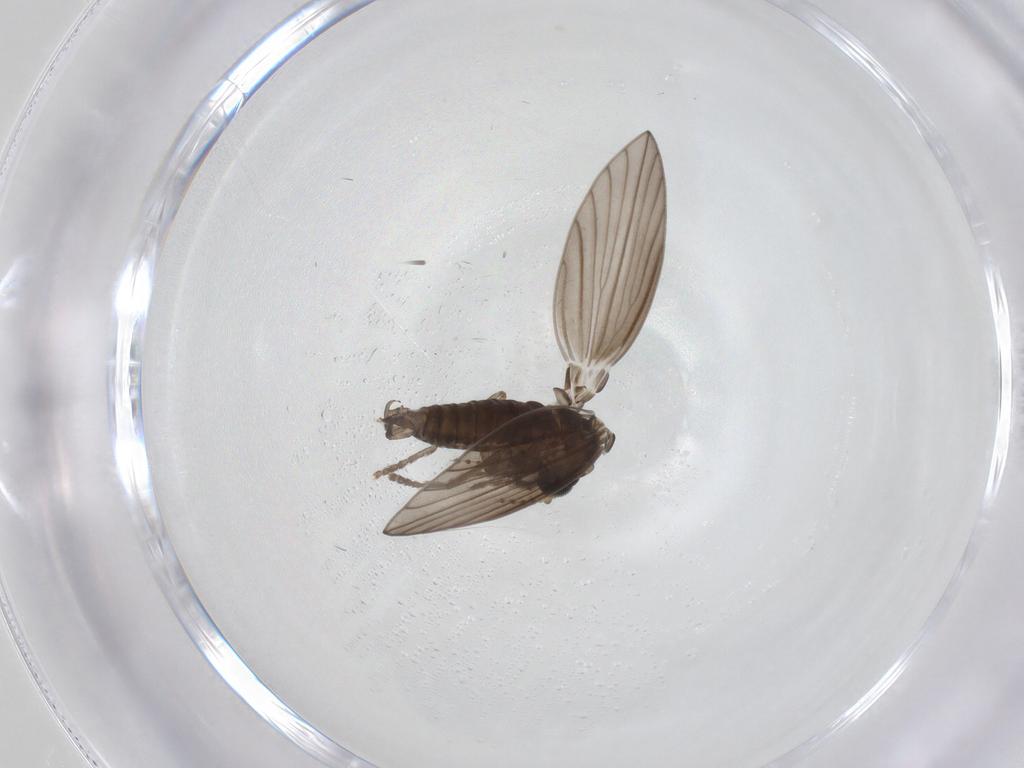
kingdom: Animalia
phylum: Arthropoda
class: Insecta
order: Diptera
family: Psychodidae
